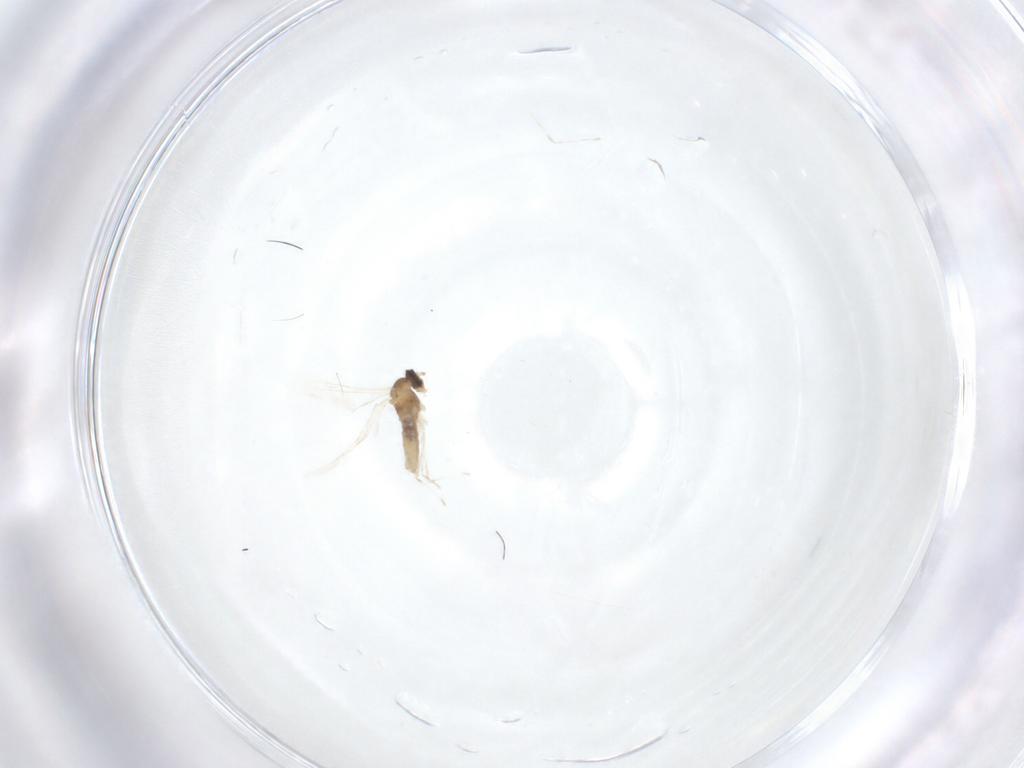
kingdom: Animalia
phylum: Arthropoda
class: Insecta
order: Diptera
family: Cecidomyiidae
